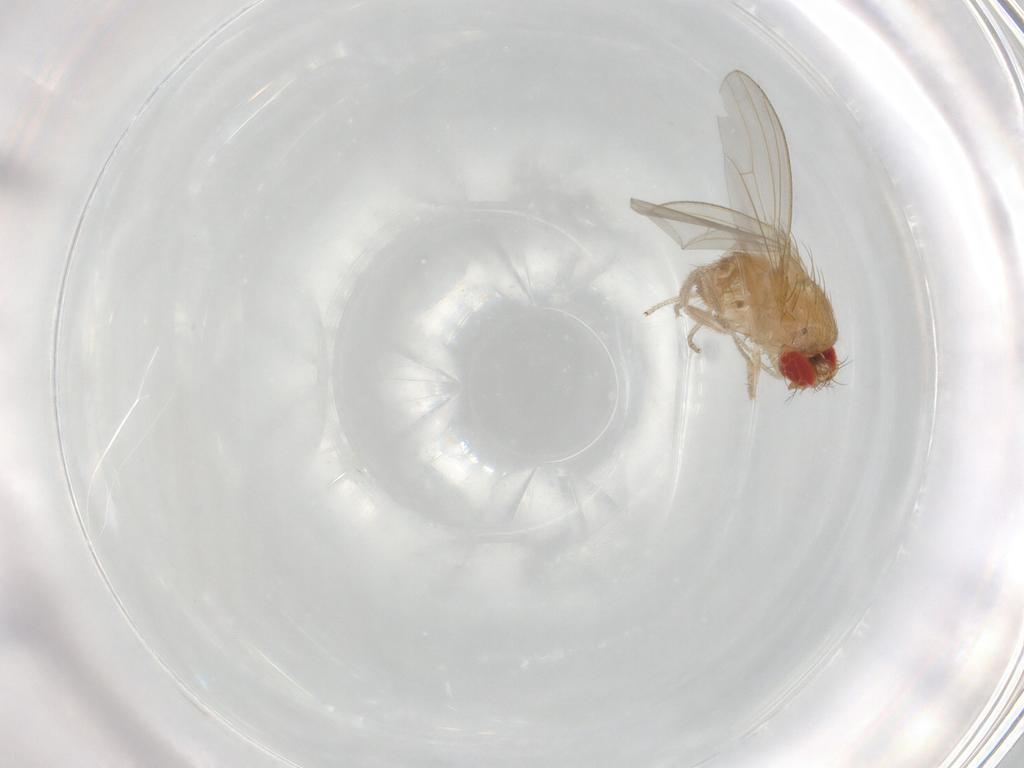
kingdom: Animalia
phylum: Arthropoda
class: Insecta
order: Diptera
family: Drosophilidae
